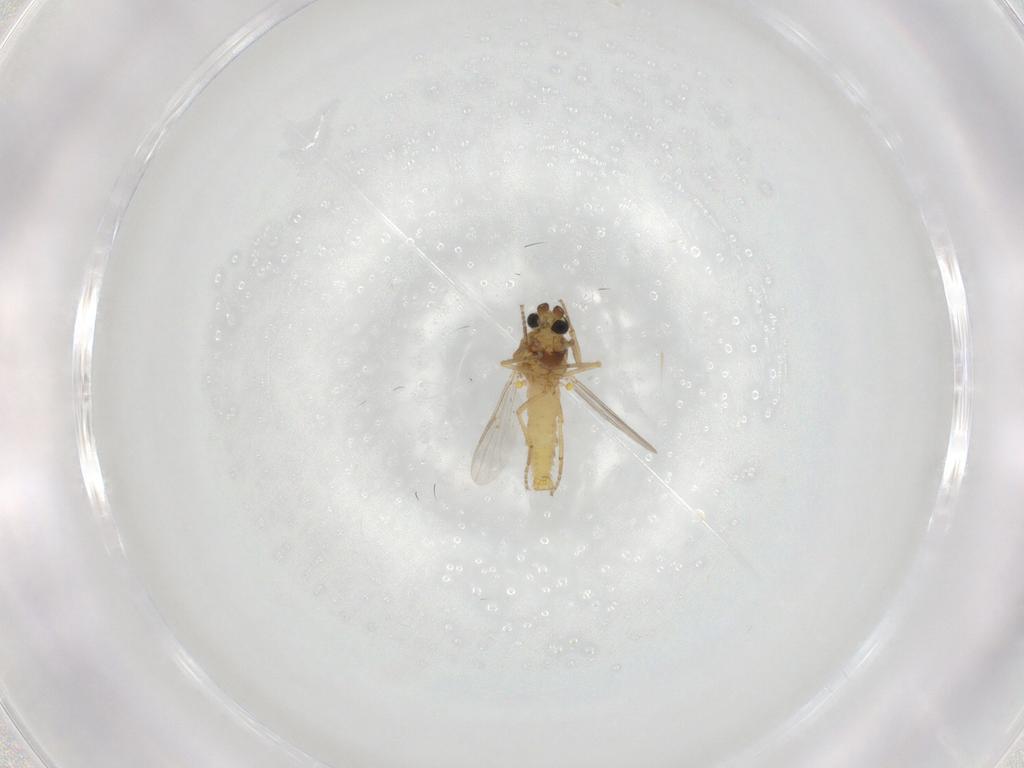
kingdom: Animalia
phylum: Arthropoda
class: Insecta
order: Diptera
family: Ceratopogonidae
